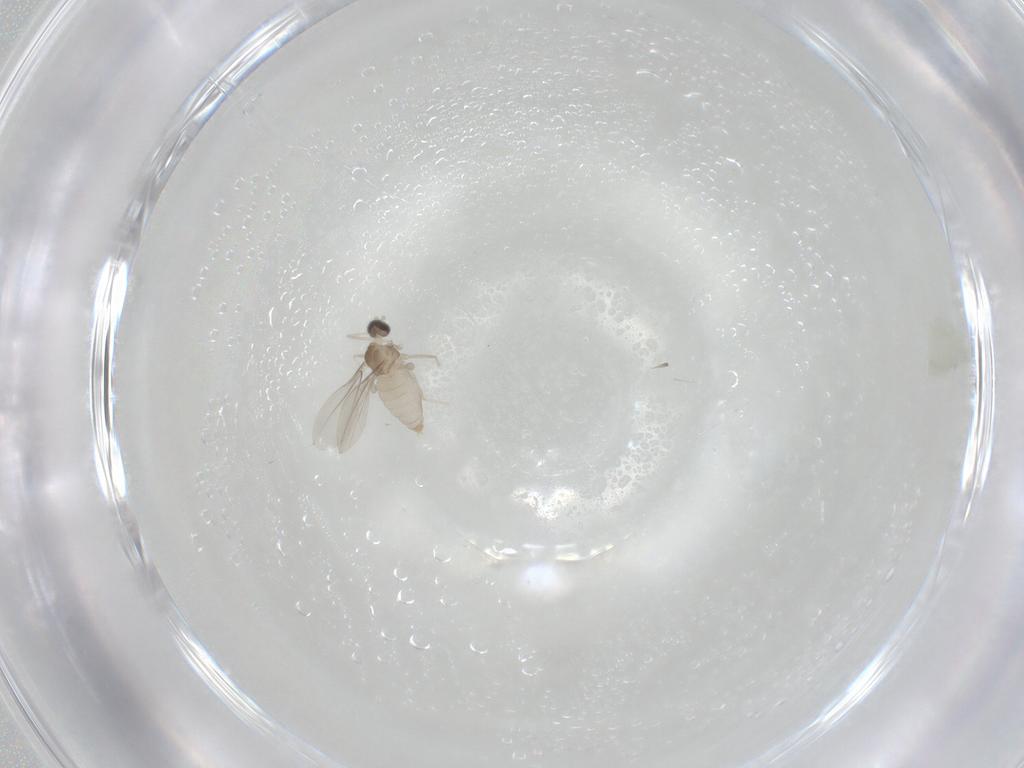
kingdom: Animalia
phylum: Arthropoda
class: Insecta
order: Diptera
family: Cecidomyiidae
